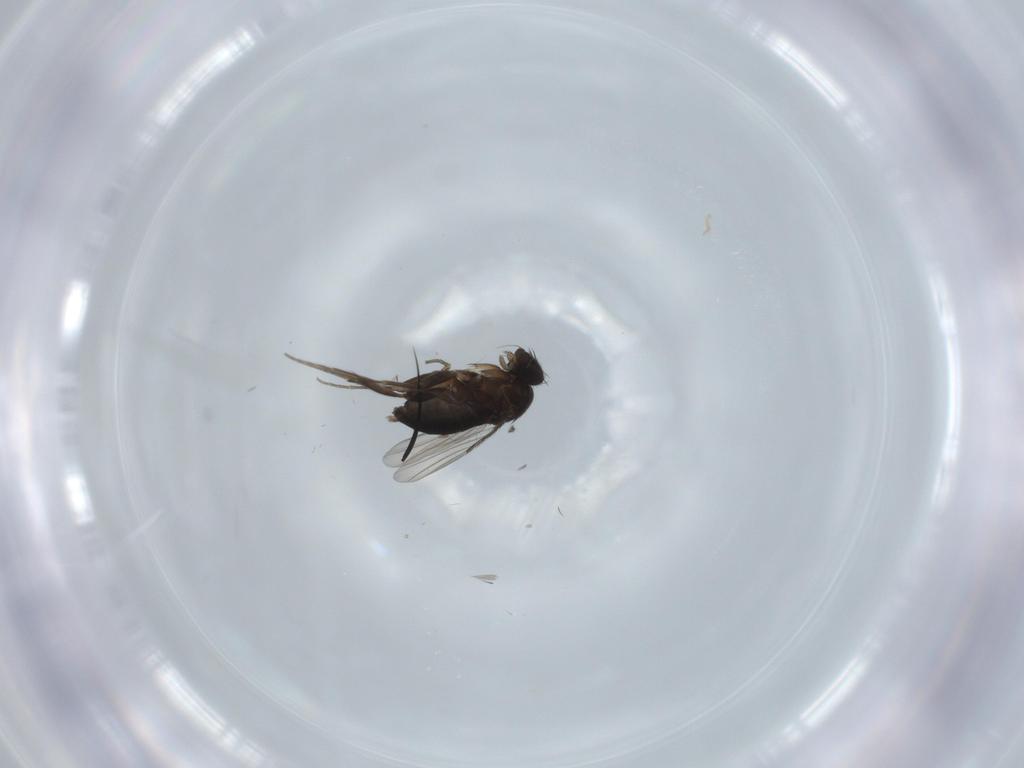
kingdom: Animalia
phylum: Arthropoda
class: Insecta
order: Diptera
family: Phoridae
